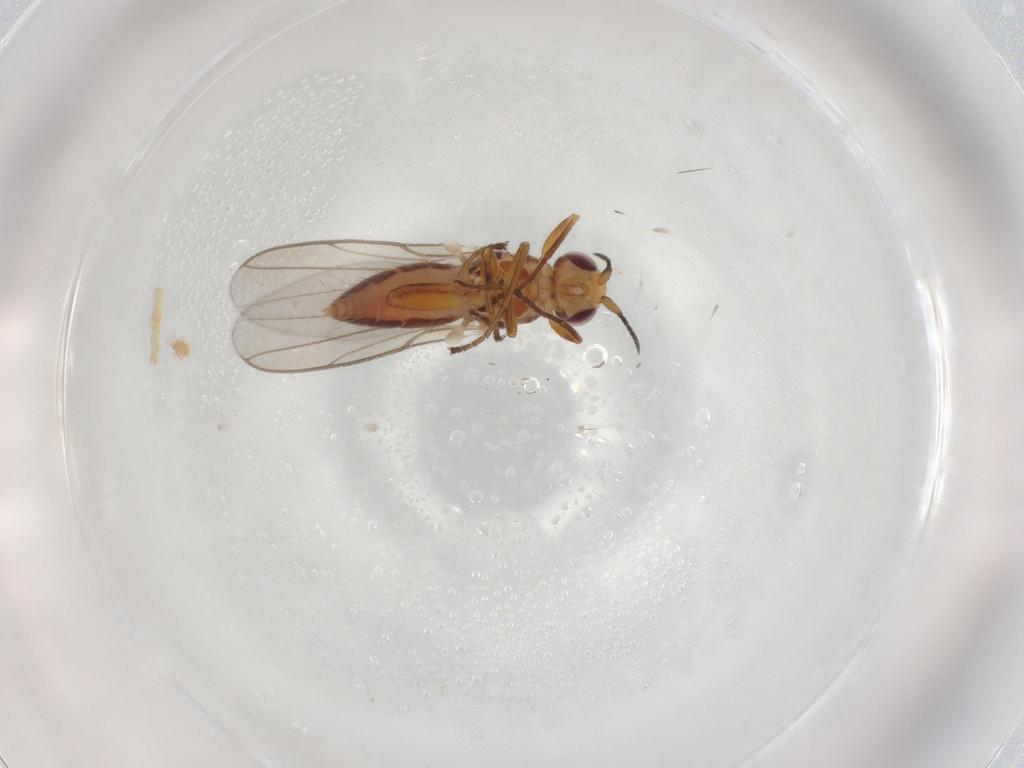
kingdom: Animalia
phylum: Arthropoda
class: Insecta
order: Diptera
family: Chloropidae
